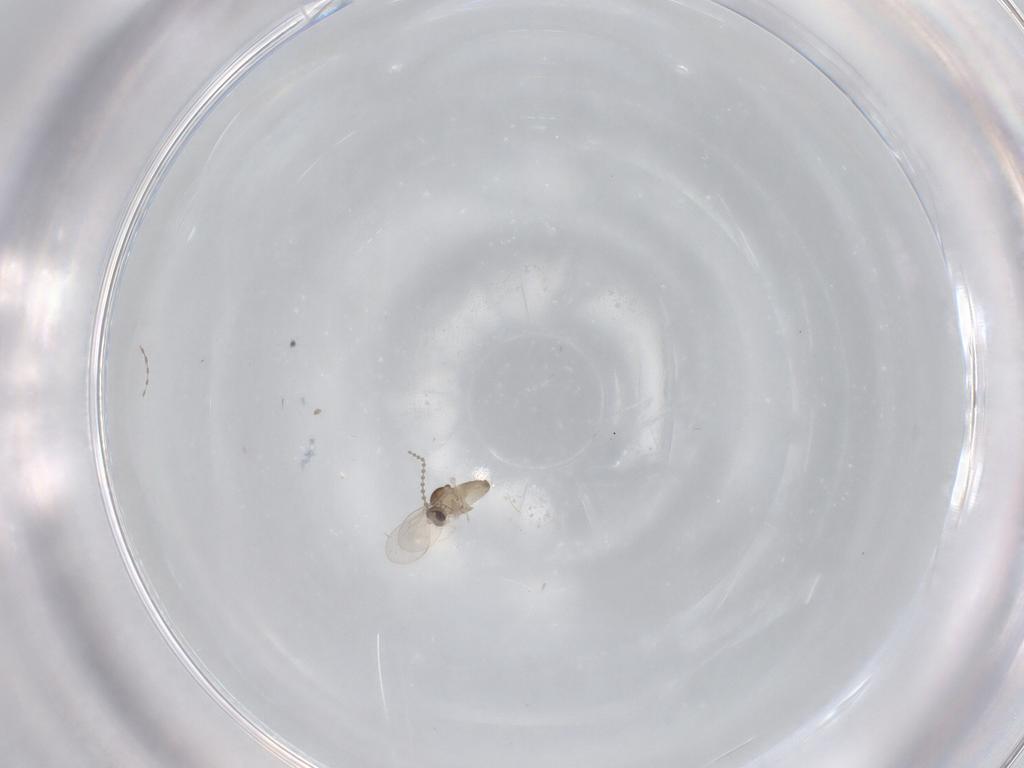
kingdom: Animalia
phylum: Arthropoda
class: Insecta
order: Diptera
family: Cecidomyiidae
